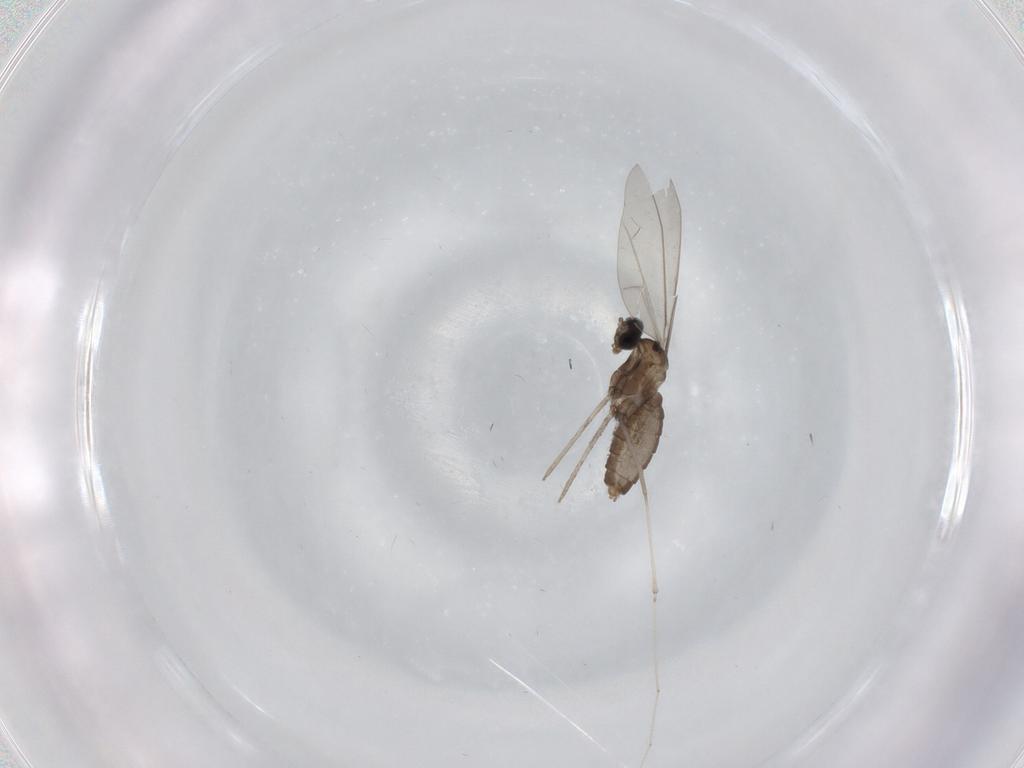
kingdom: Animalia
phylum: Arthropoda
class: Insecta
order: Diptera
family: Cecidomyiidae
